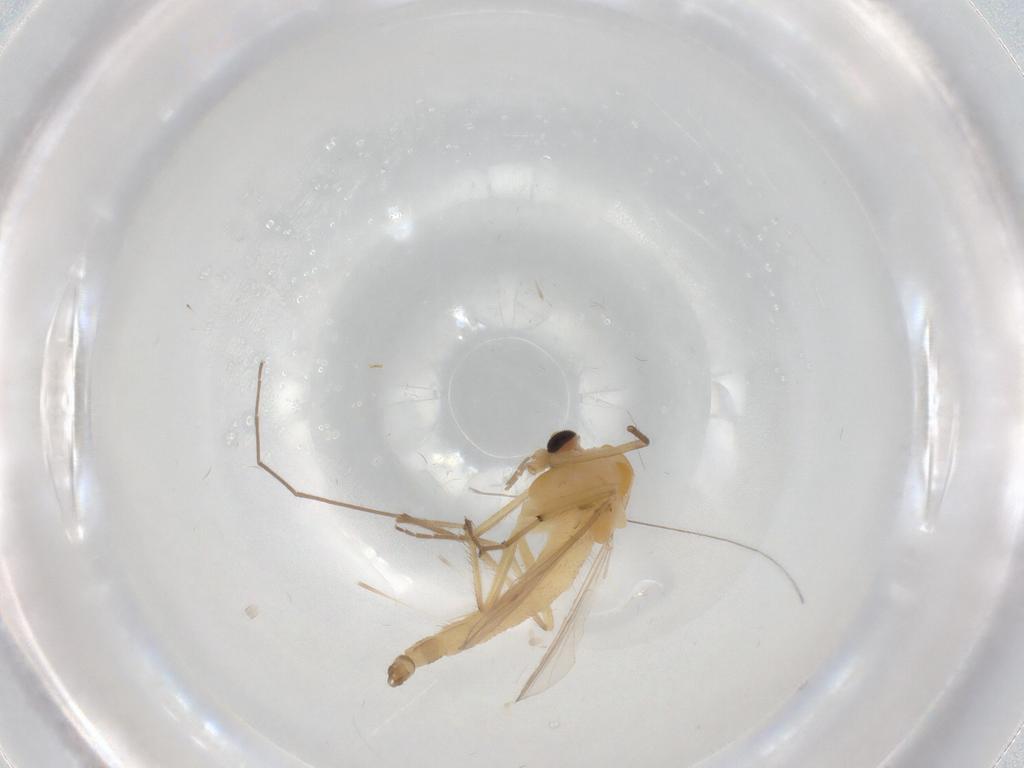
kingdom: Animalia
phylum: Arthropoda
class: Insecta
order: Diptera
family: Chironomidae
